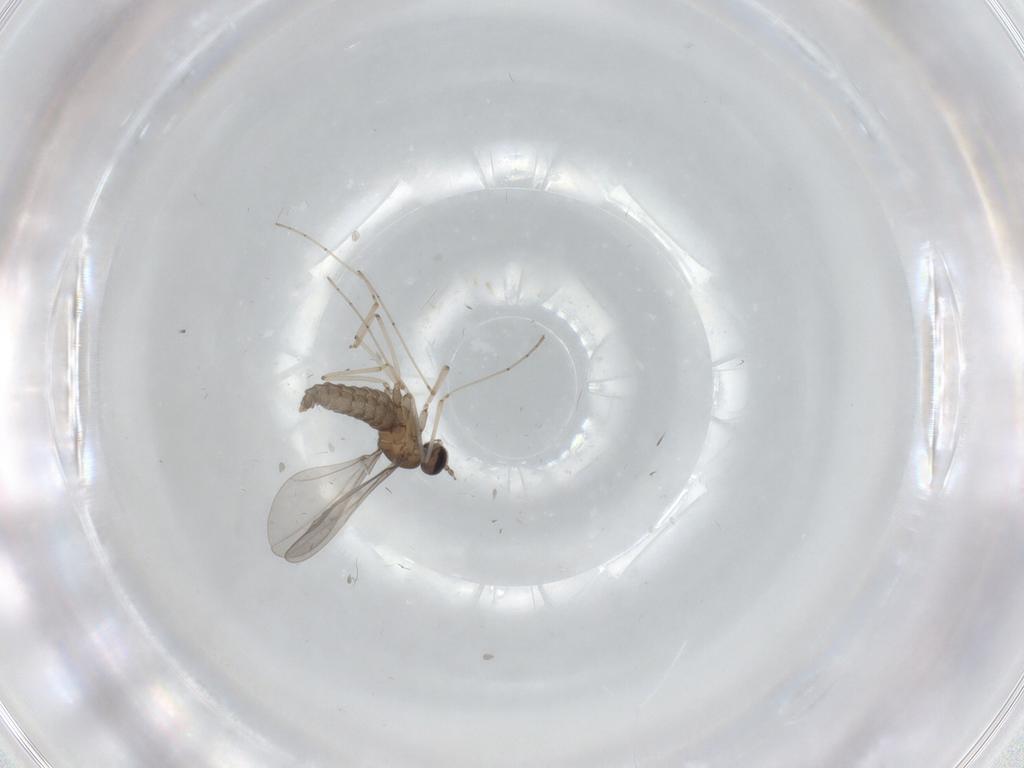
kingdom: Animalia
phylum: Arthropoda
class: Insecta
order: Diptera
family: Cecidomyiidae
